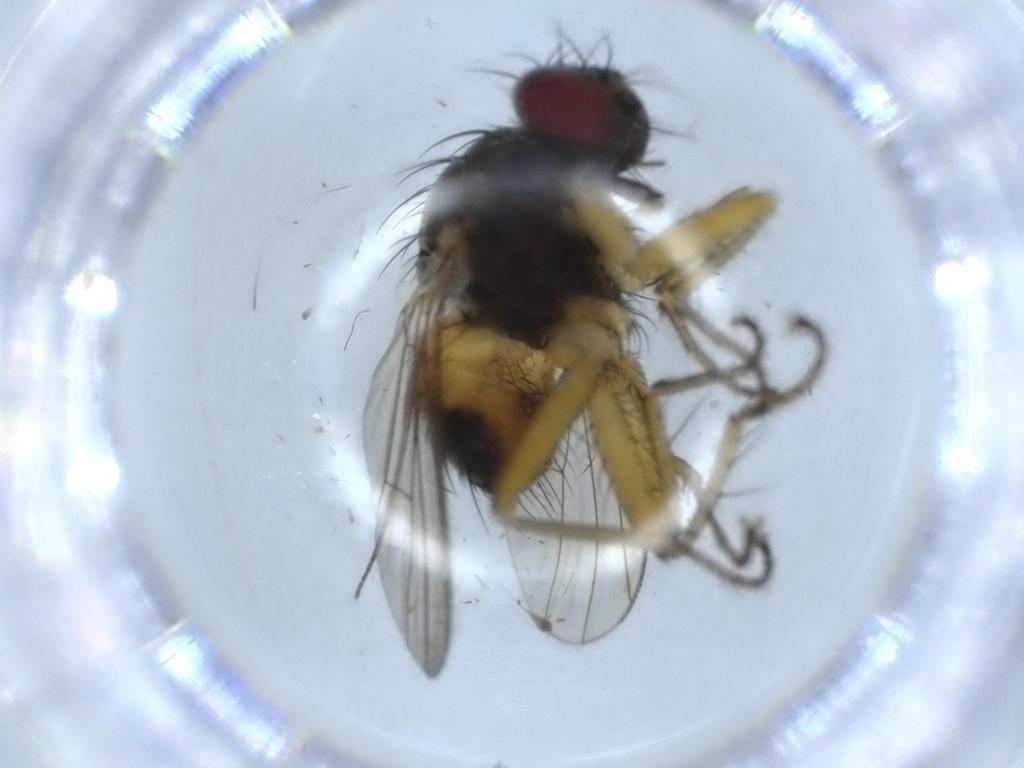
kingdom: Animalia
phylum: Arthropoda
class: Insecta
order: Diptera
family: Muscidae
